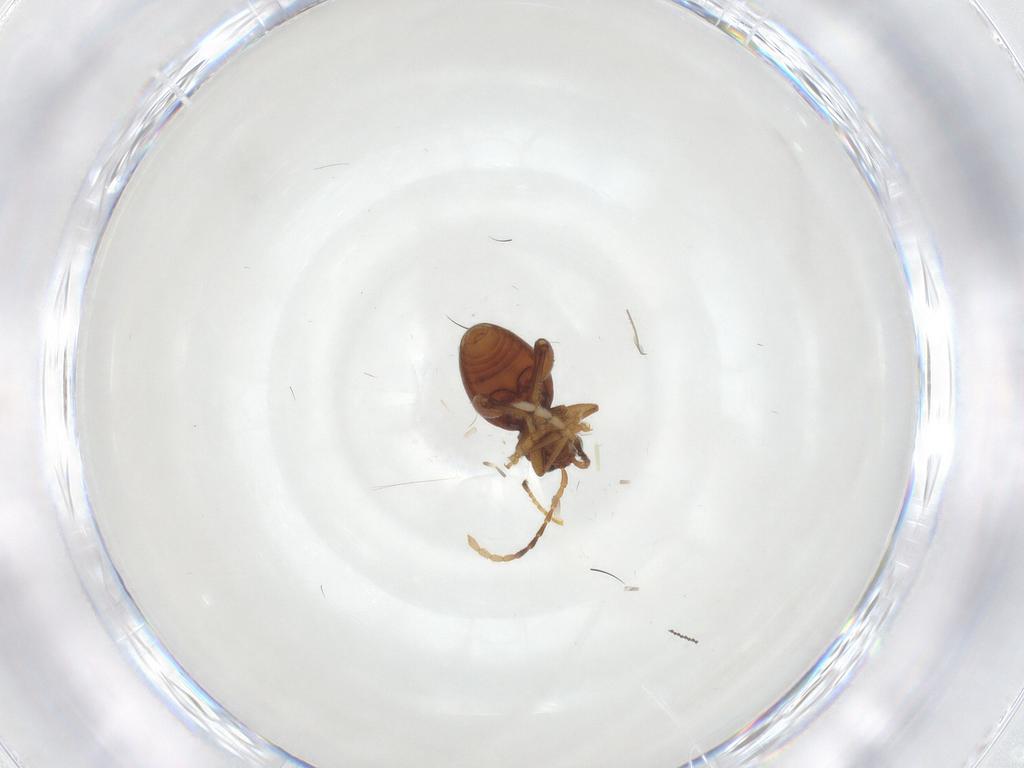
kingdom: Animalia
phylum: Arthropoda
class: Insecta
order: Coleoptera
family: Chrysomelidae
